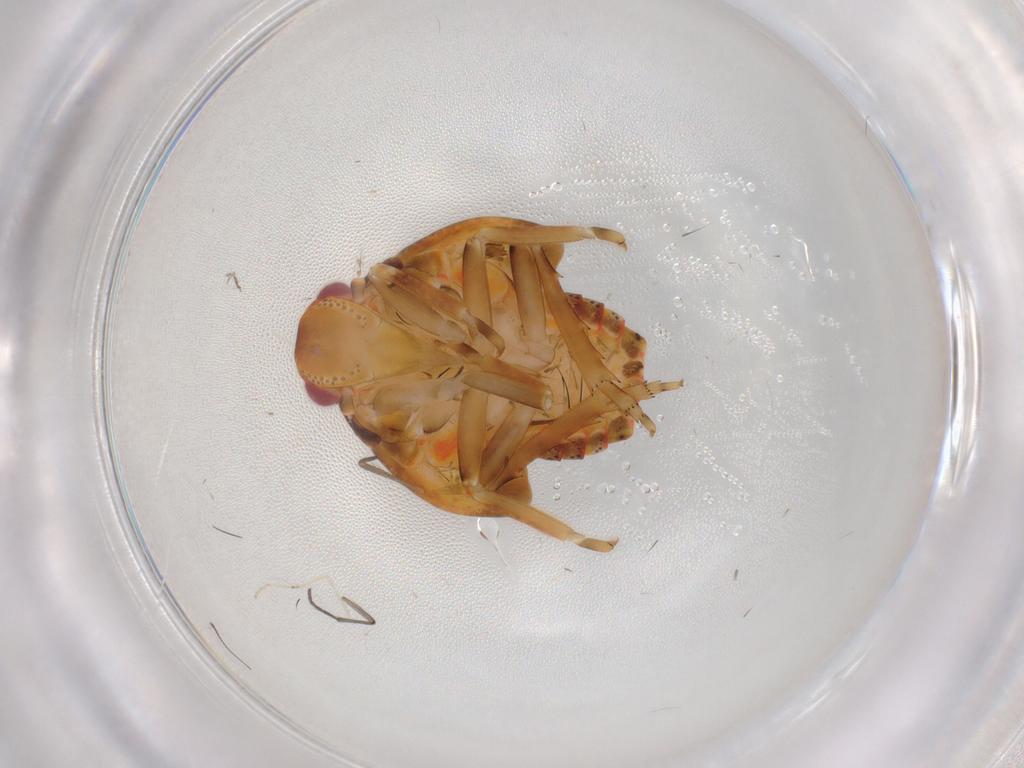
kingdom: Animalia
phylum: Arthropoda
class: Insecta
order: Hemiptera
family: Flatidae
